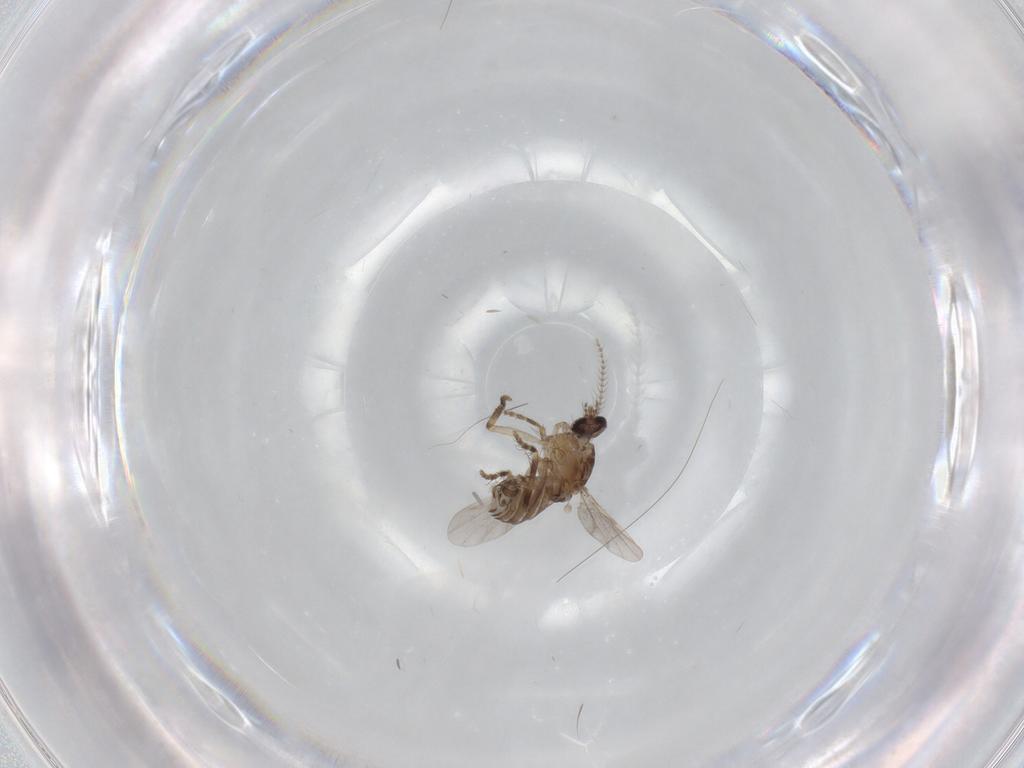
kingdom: Animalia
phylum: Arthropoda
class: Insecta
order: Diptera
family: Ceratopogonidae
